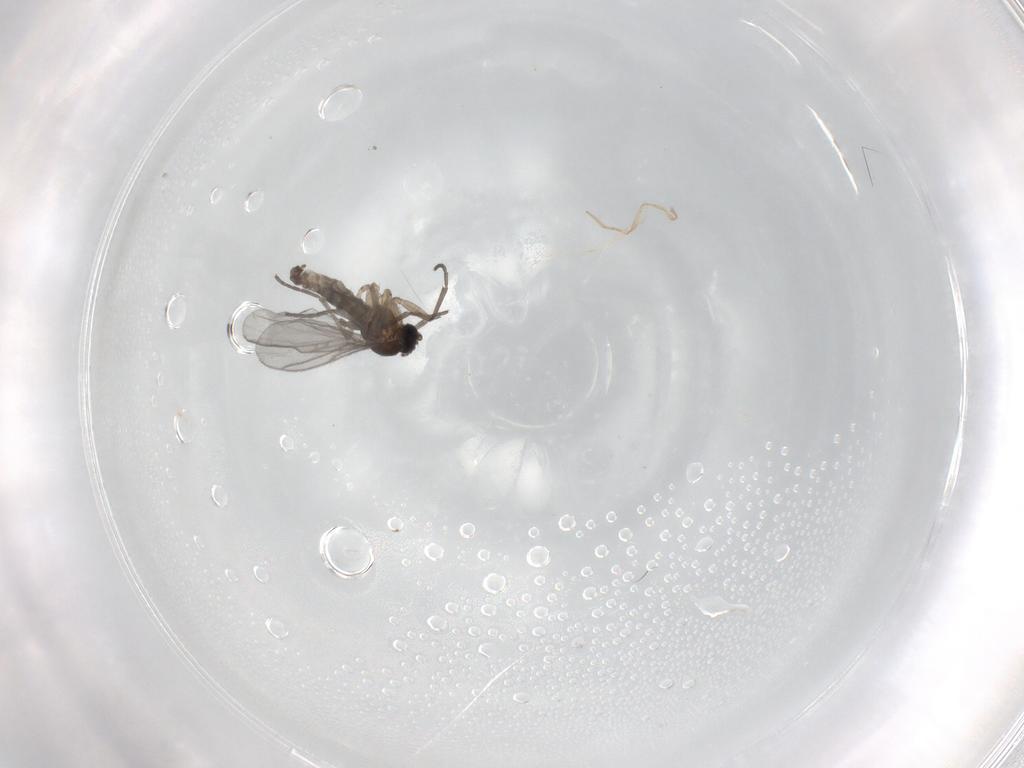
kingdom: Animalia
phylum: Arthropoda
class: Insecta
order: Diptera
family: Sciaridae
